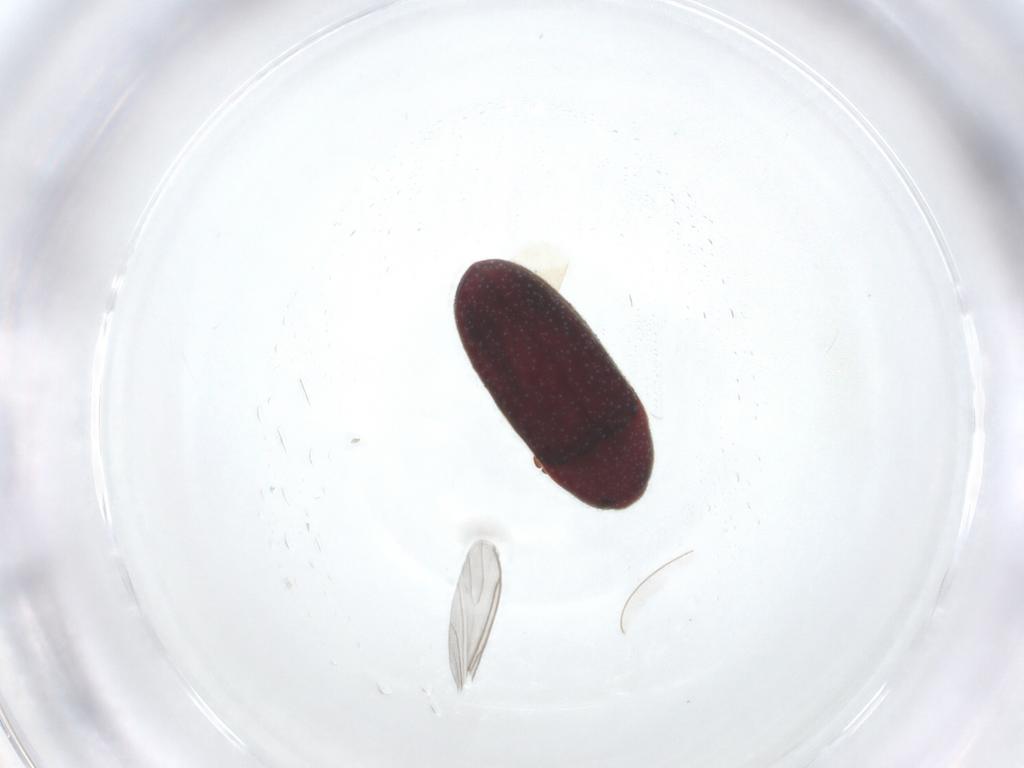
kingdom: Animalia
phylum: Arthropoda
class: Insecta
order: Coleoptera
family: Throscidae
